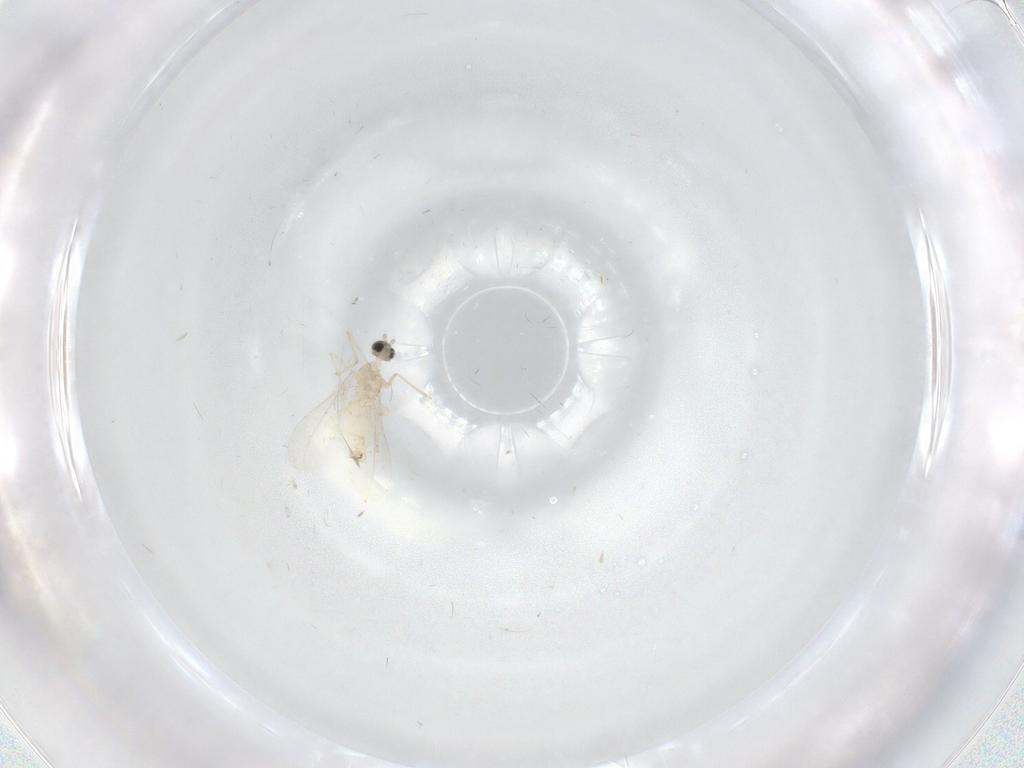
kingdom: Animalia
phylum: Arthropoda
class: Insecta
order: Diptera
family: Cecidomyiidae
